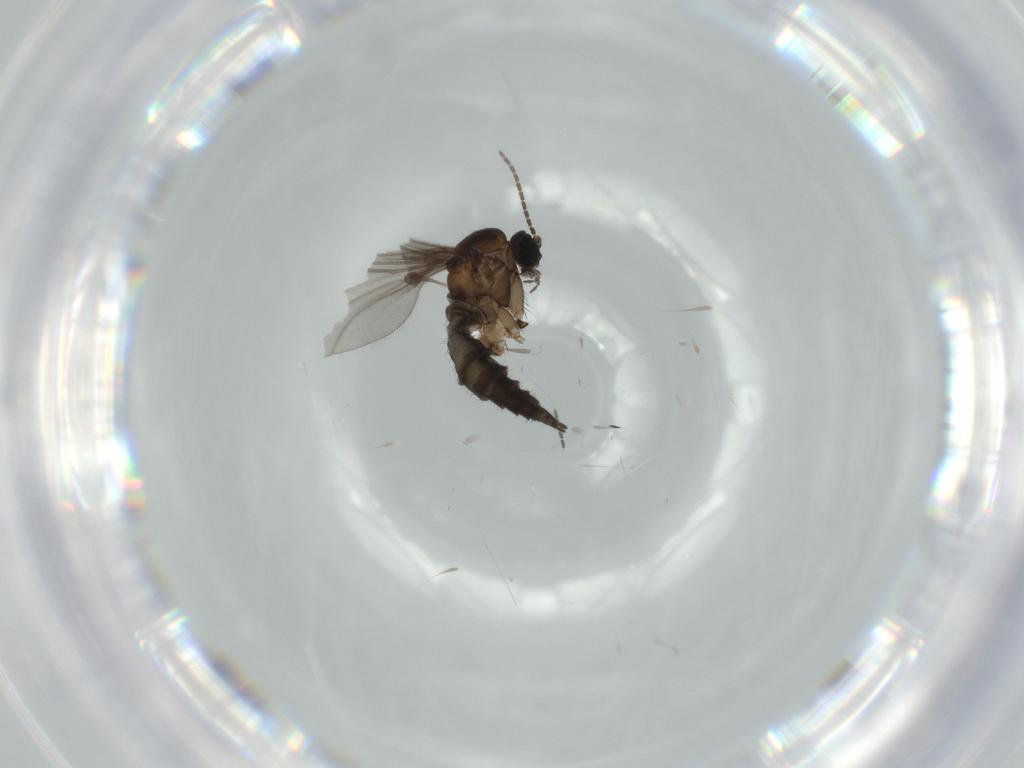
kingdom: Animalia
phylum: Arthropoda
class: Insecta
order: Diptera
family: Sciaridae
